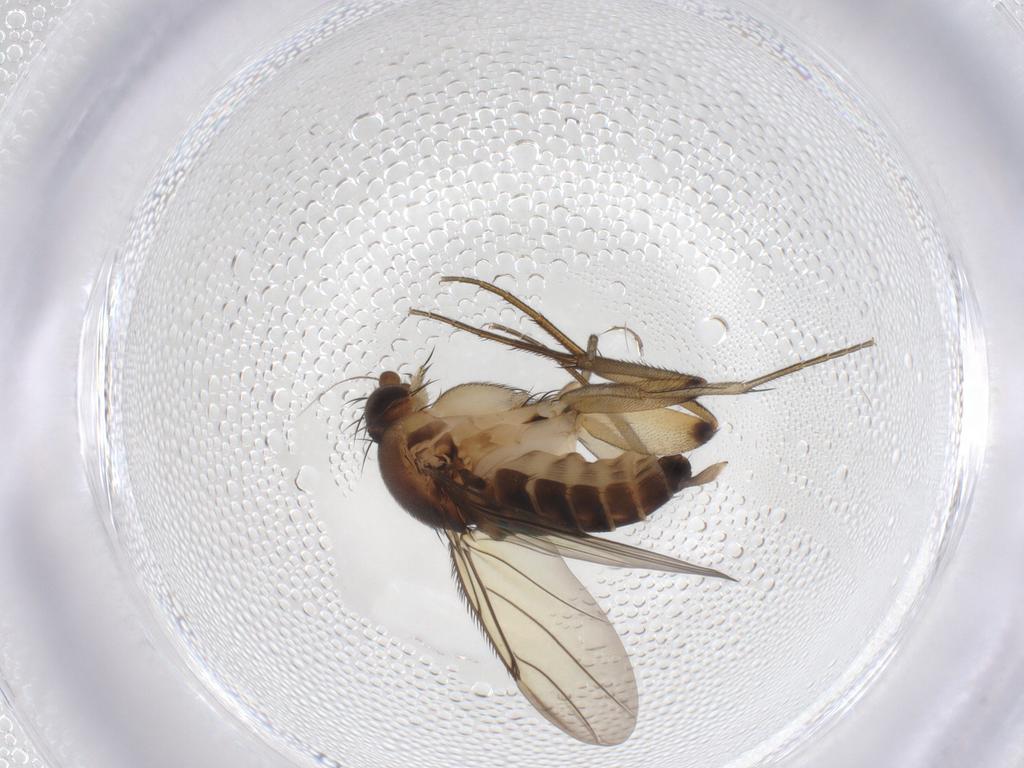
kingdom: Animalia
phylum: Arthropoda
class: Insecta
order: Diptera
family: Phoridae
